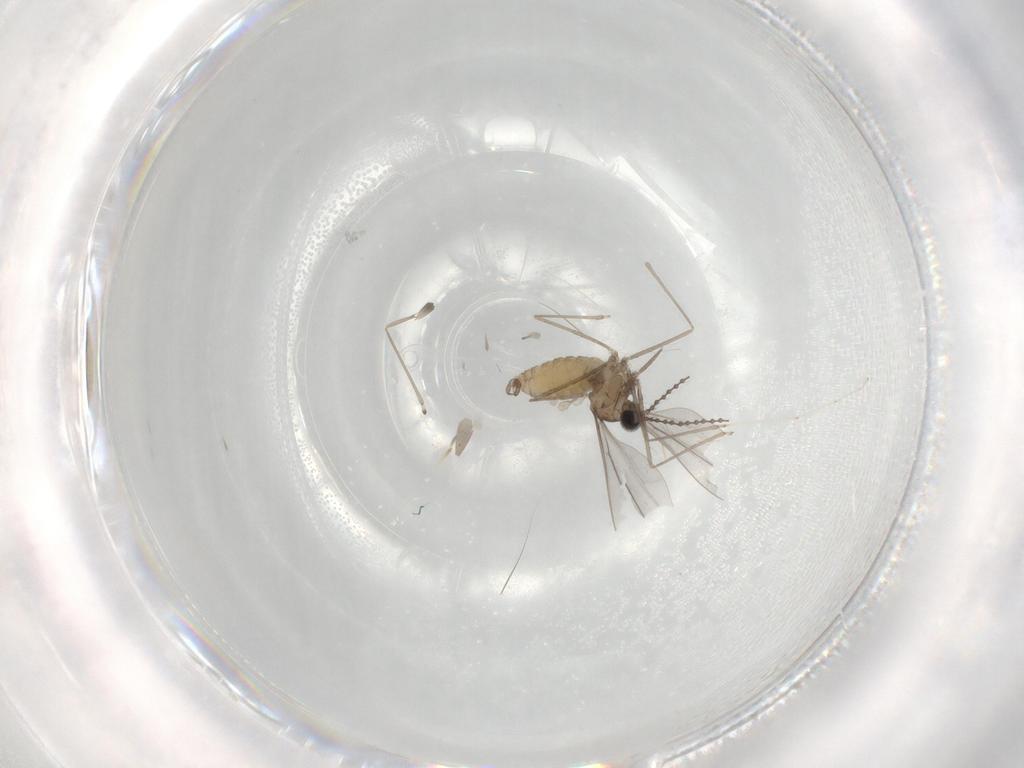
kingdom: Animalia
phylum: Arthropoda
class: Insecta
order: Diptera
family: Cecidomyiidae
